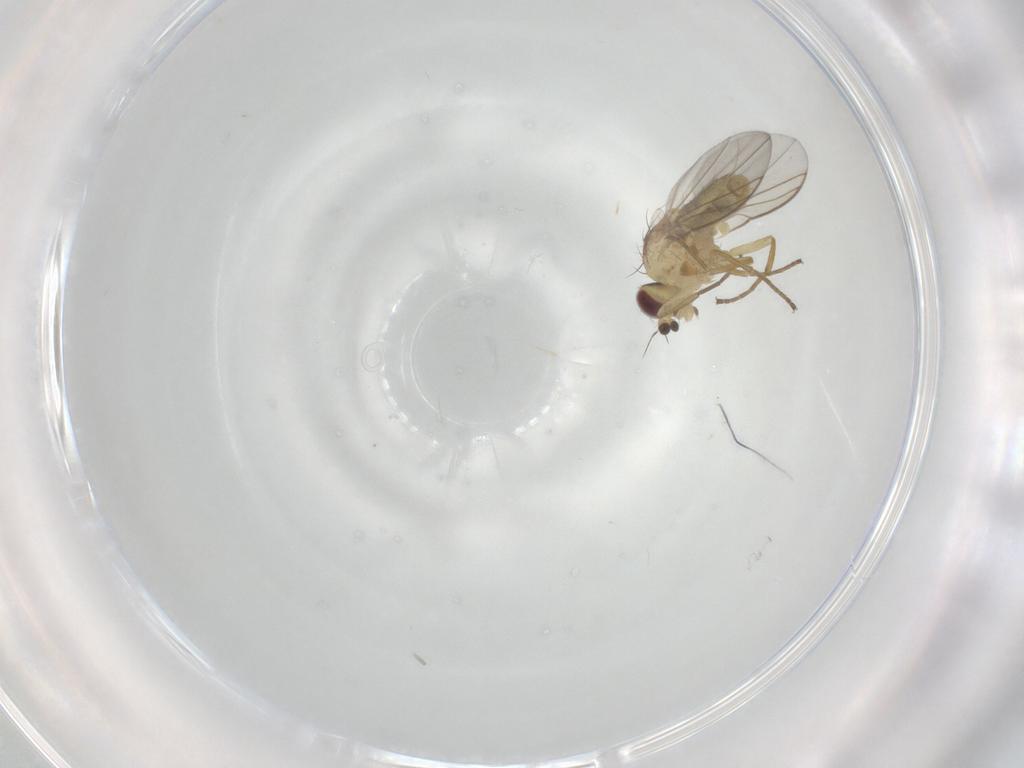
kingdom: Animalia
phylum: Arthropoda
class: Insecta
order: Diptera
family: Agromyzidae
